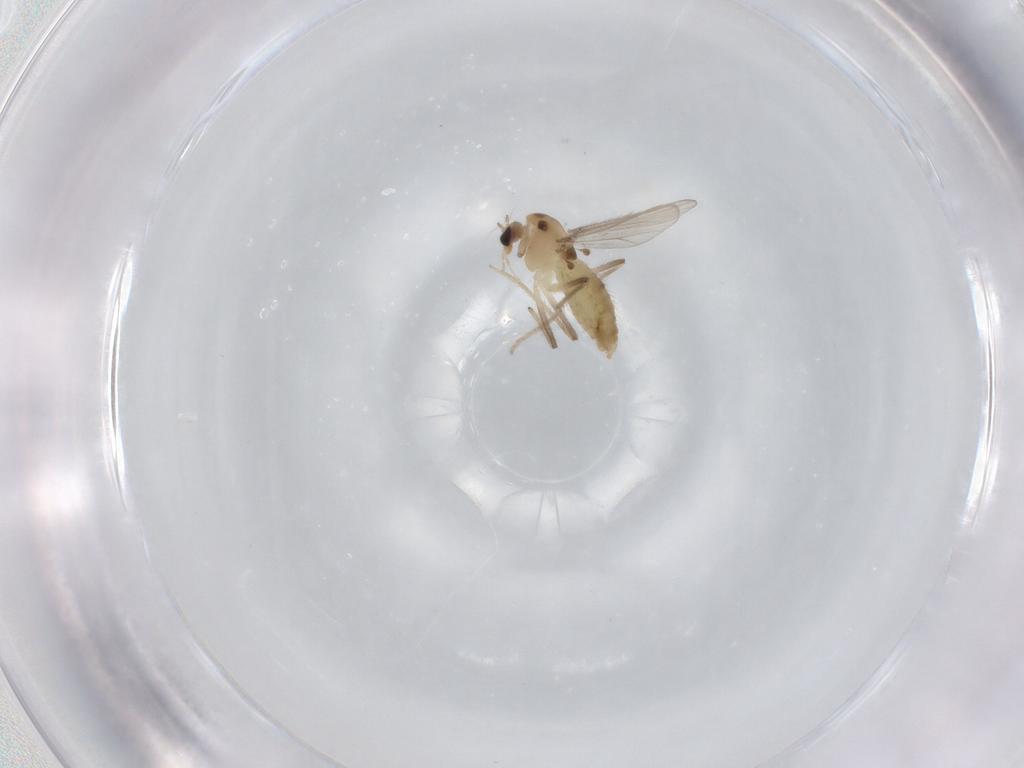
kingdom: Animalia
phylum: Arthropoda
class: Insecta
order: Diptera
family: Chironomidae
